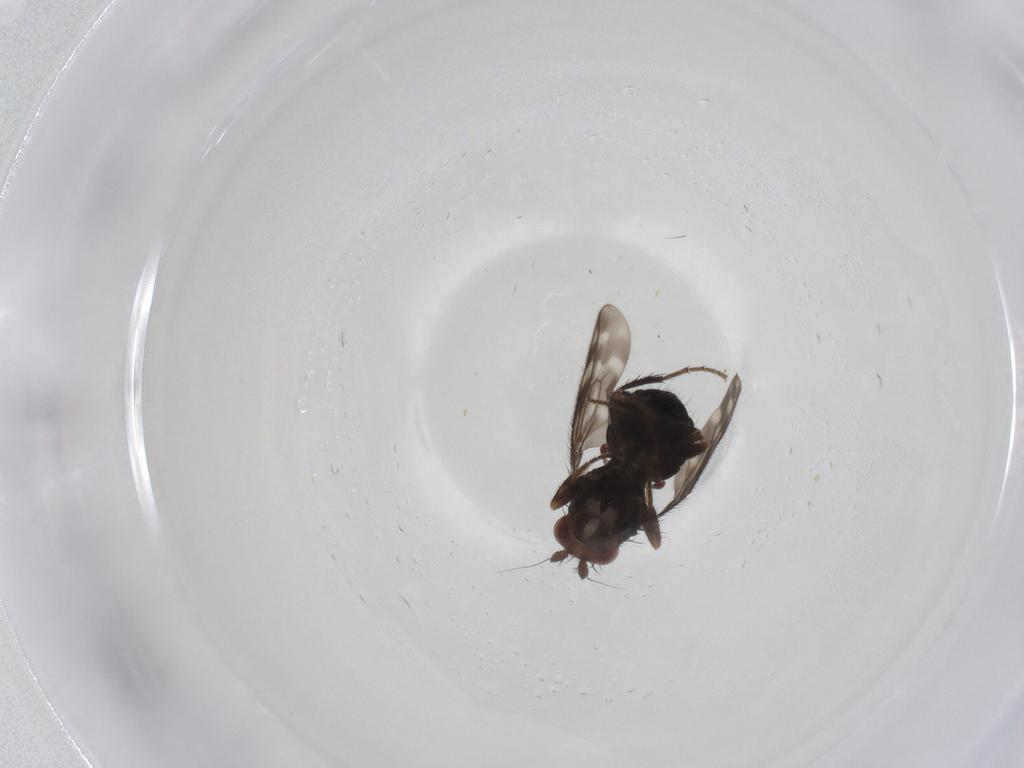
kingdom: Animalia
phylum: Arthropoda
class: Insecta
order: Diptera
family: Sphaeroceridae
